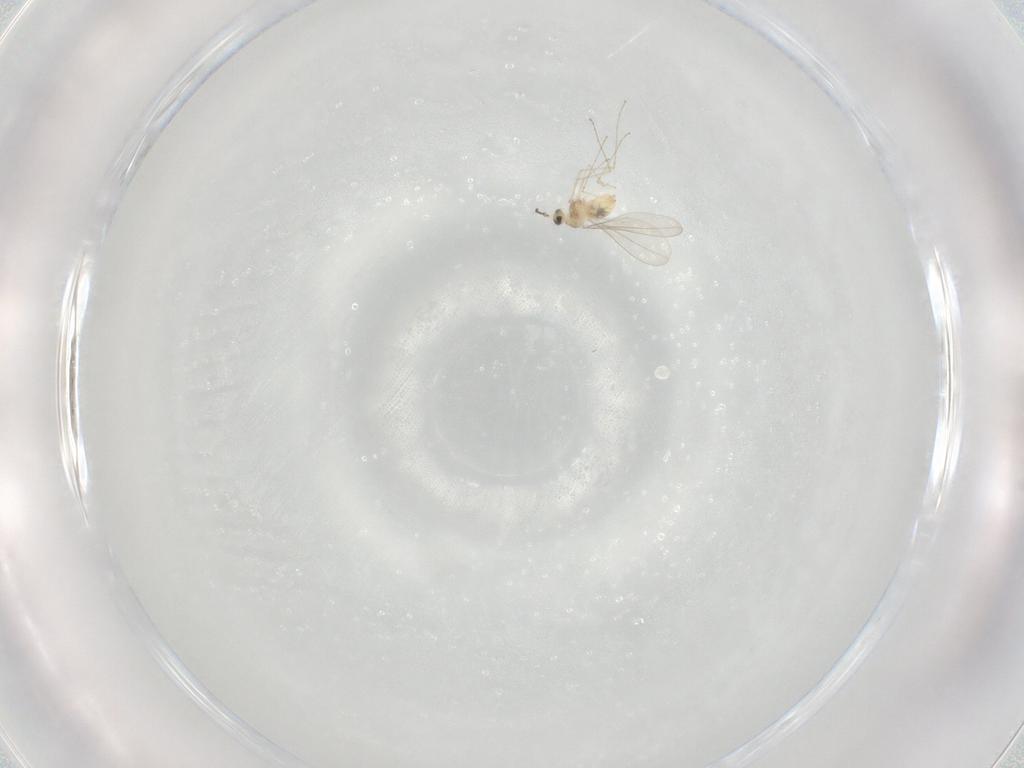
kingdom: Animalia
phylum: Arthropoda
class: Insecta
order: Diptera
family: Cecidomyiidae
